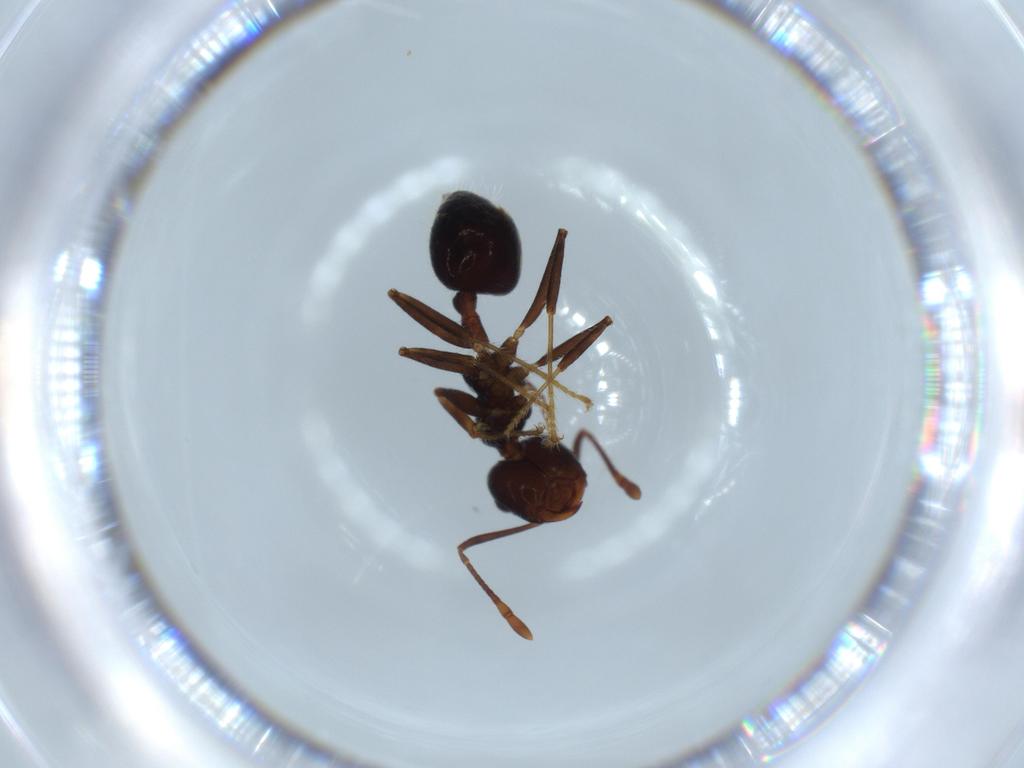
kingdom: Animalia
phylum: Arthropoda
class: Insecta
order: Hymenoptera
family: Formicidae
